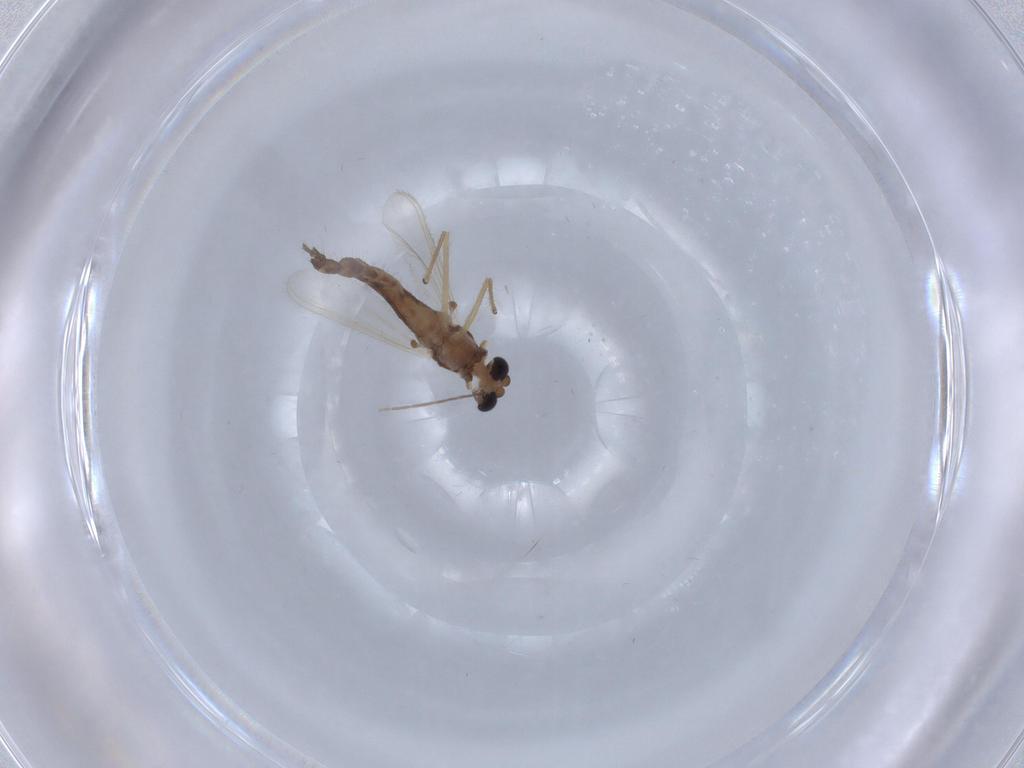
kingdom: Animalia
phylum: Arthropoda
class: Insecta
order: Diptera
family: Chironomidae
